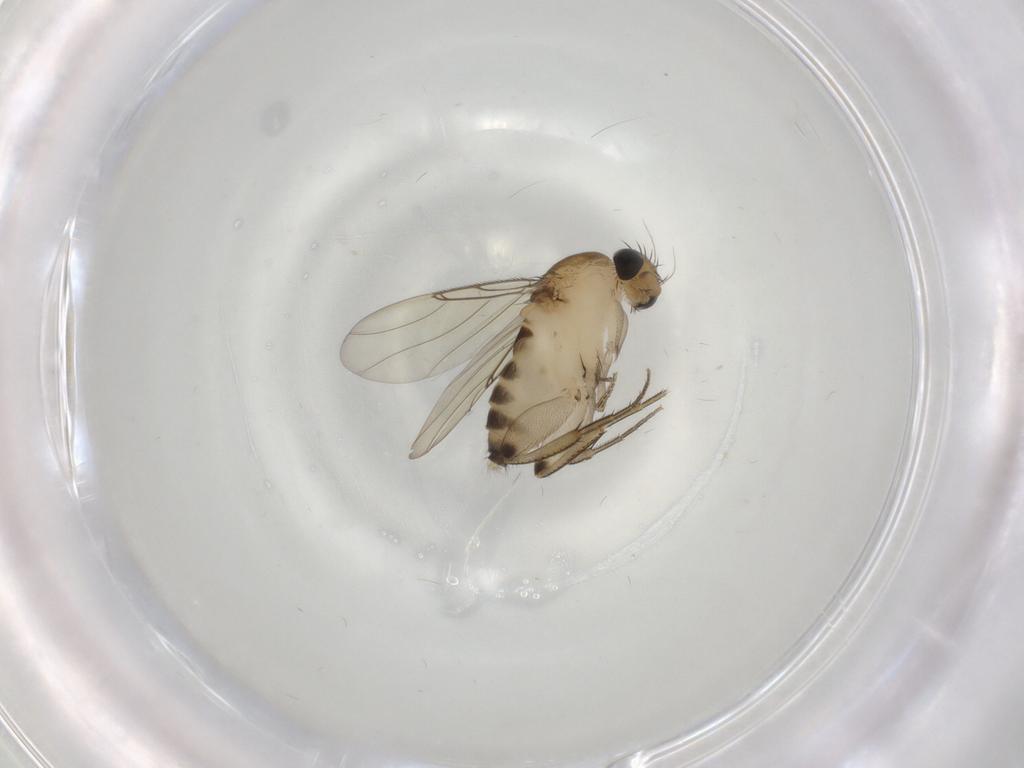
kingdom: Animalia
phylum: Arthropoda
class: Insecta
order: Diptera
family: Phoridae
